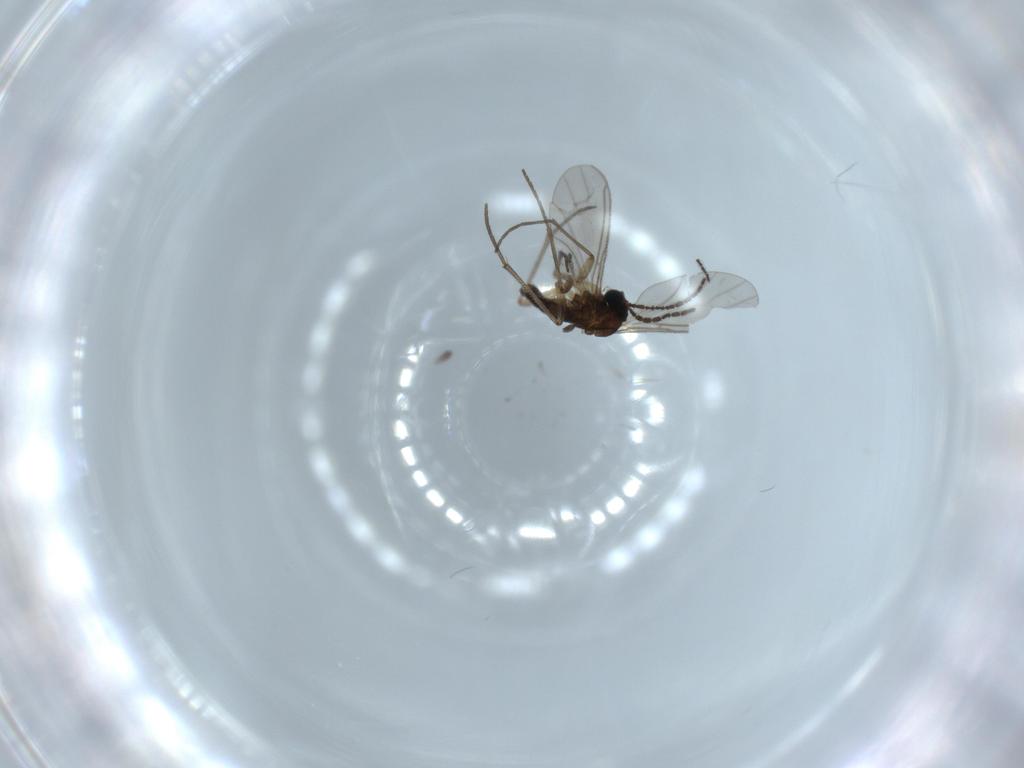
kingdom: Animalia
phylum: Arthropoda
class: Insecta
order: Diptera
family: Sciaridae
